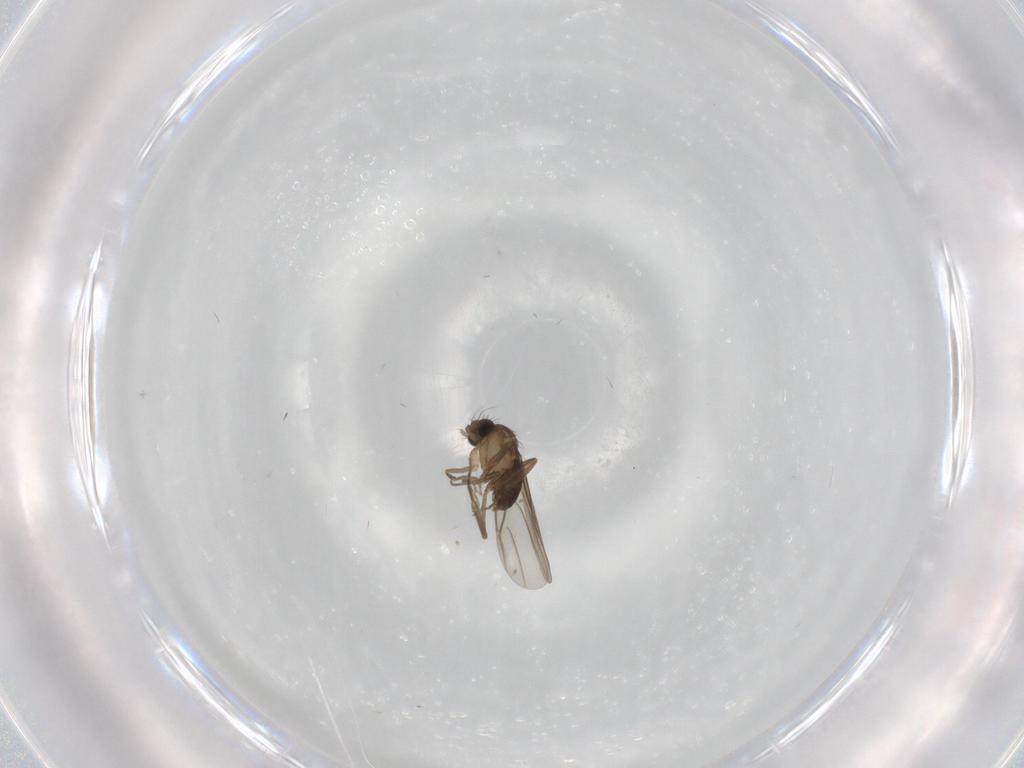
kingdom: Animalia
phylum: Arthropoda
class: Insecta
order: Diptera
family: Phoridae
